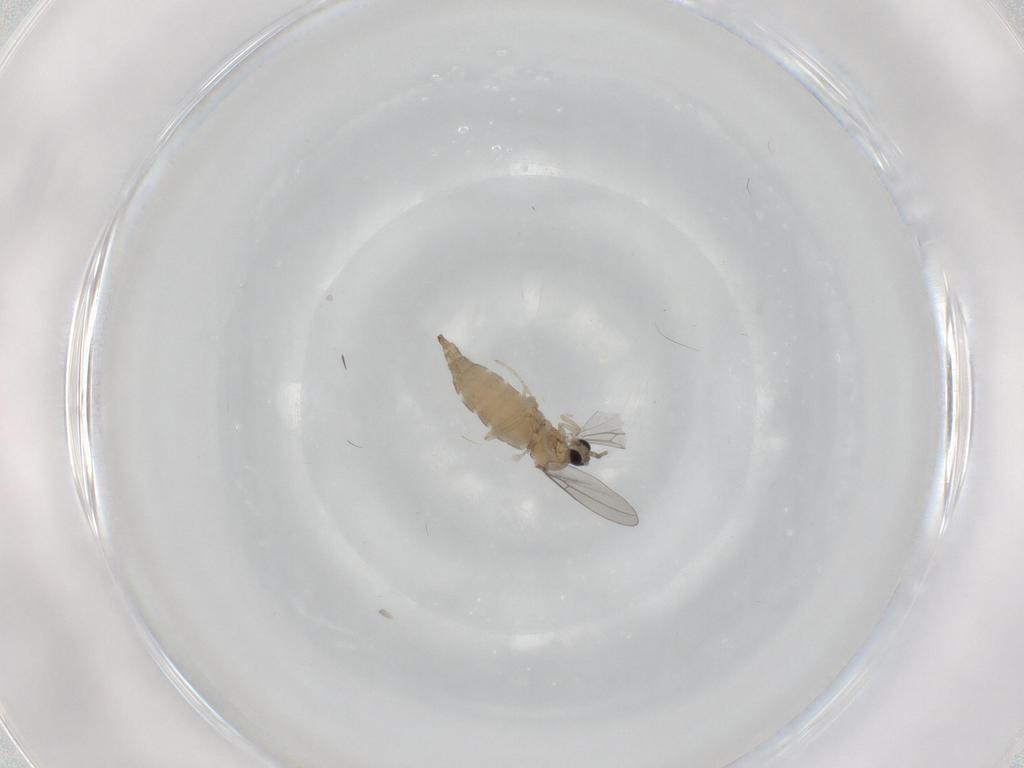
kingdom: Animalia
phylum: Arthropoda
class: Insecta
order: Diptera
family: Cecidomyiidae
